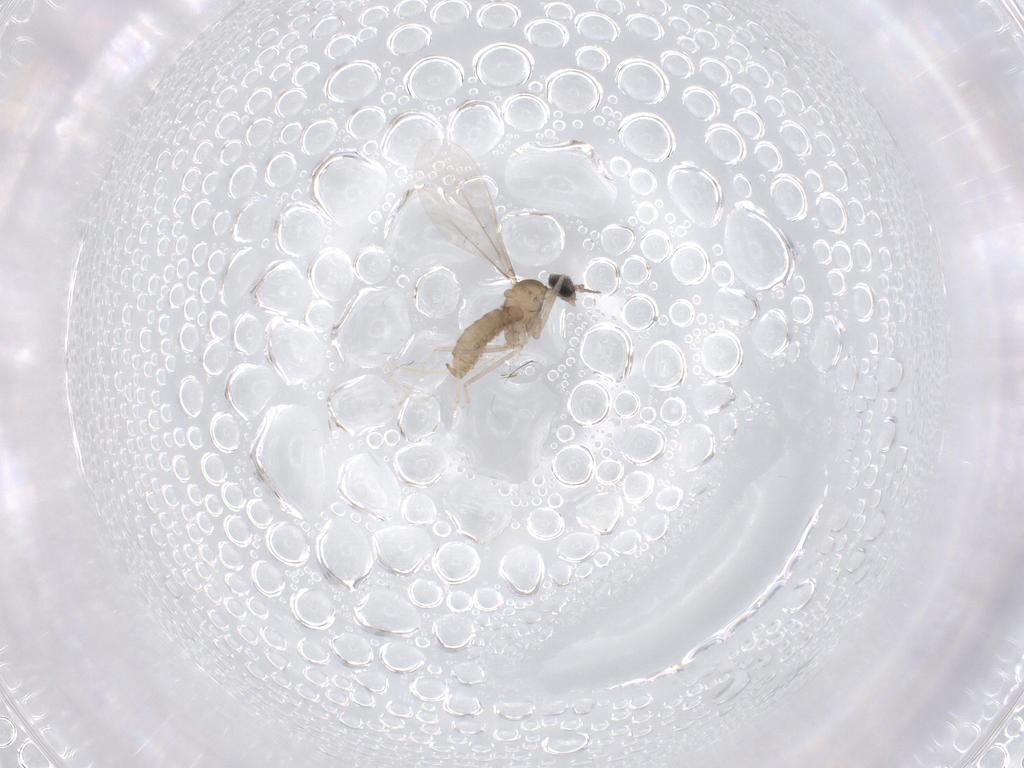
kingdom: Animalia
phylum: Arthropoda
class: Insecta
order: Diptera
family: Cecidomyiidae
